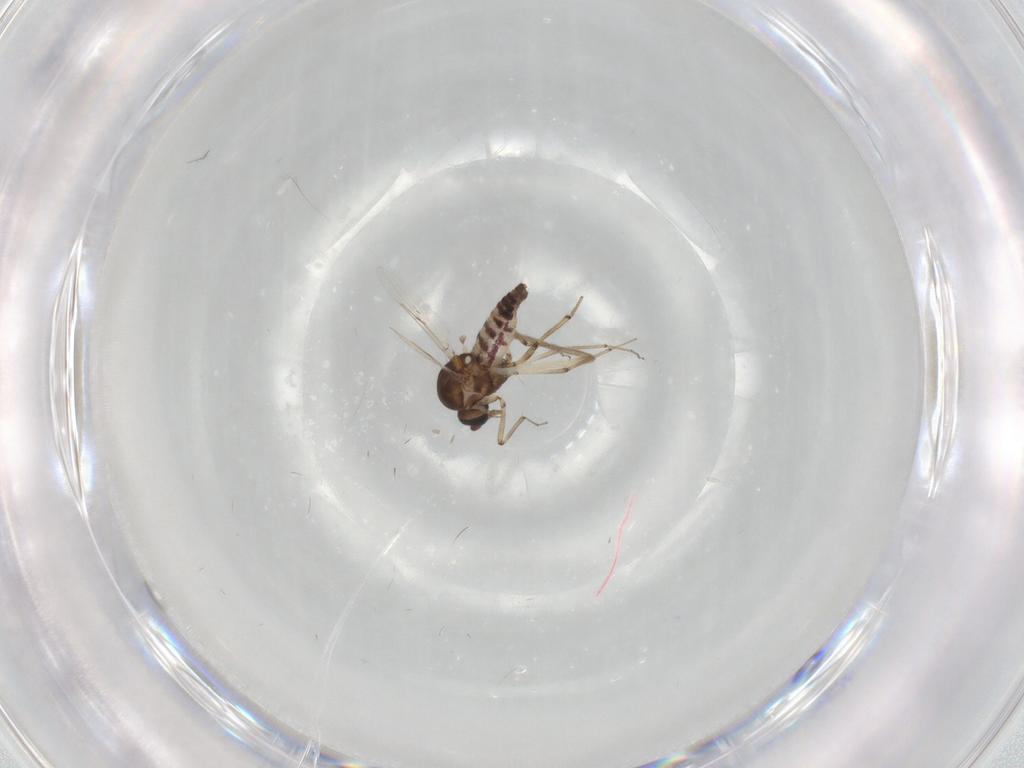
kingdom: Animalia
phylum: Arthropoda
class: Insecta
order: Diptera
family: Ceratopogonidae
